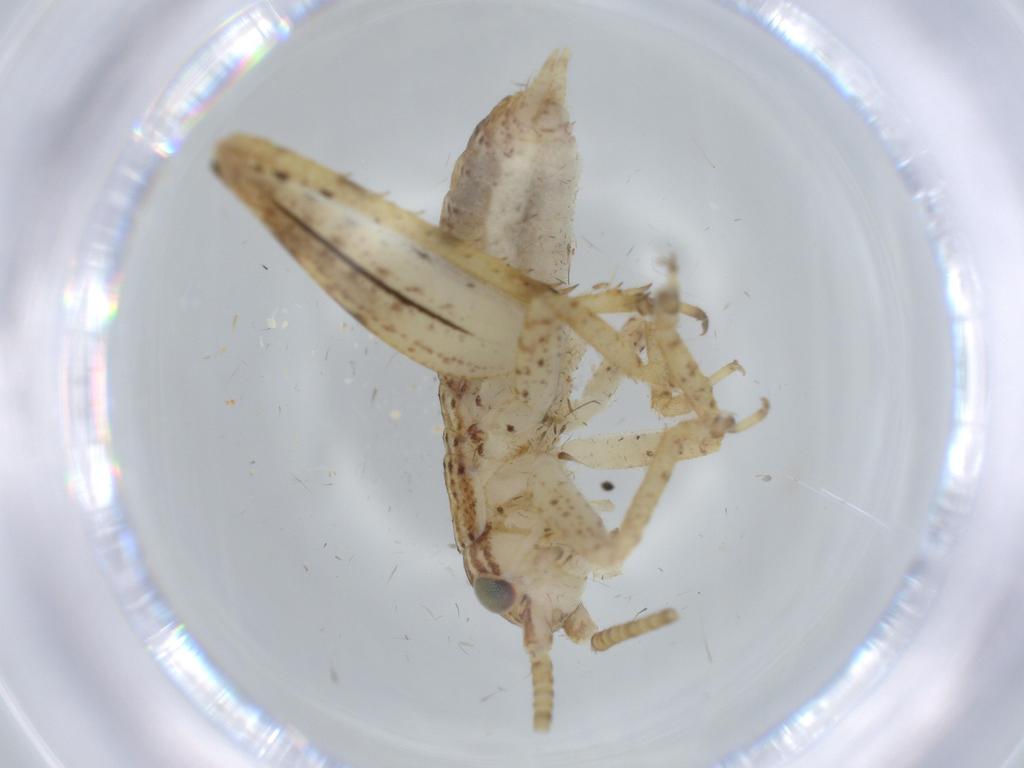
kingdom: Animalia
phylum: Arthropoda
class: Insecta
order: Orthoptera
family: Gryllidae
